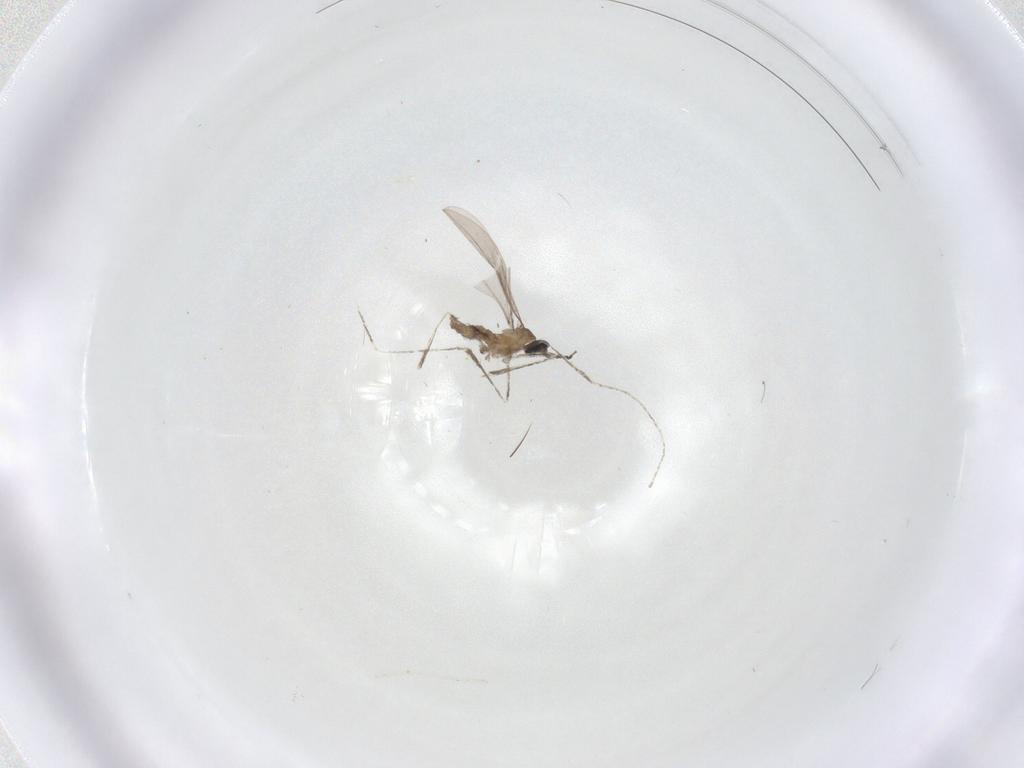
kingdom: Animalia
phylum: Arthropoda
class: Insecta
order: Diptera
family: Cecidomyiidae
